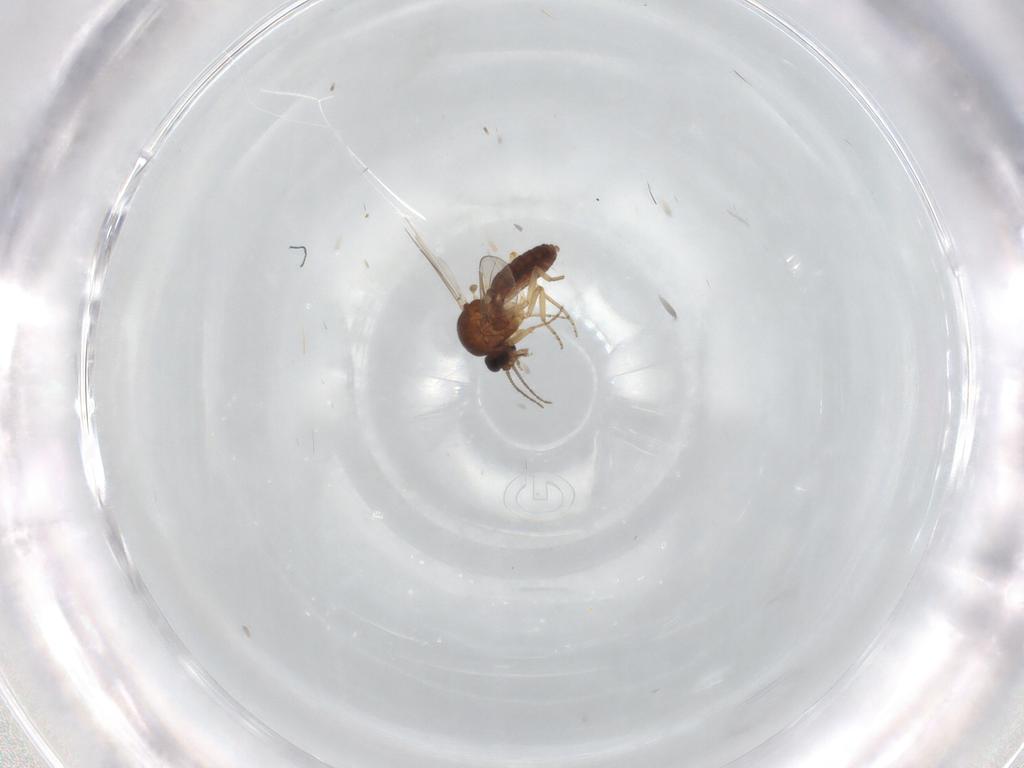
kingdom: Animalia
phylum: Arthropoda
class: Insecta
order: Diptera
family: Ceratopogonidae
